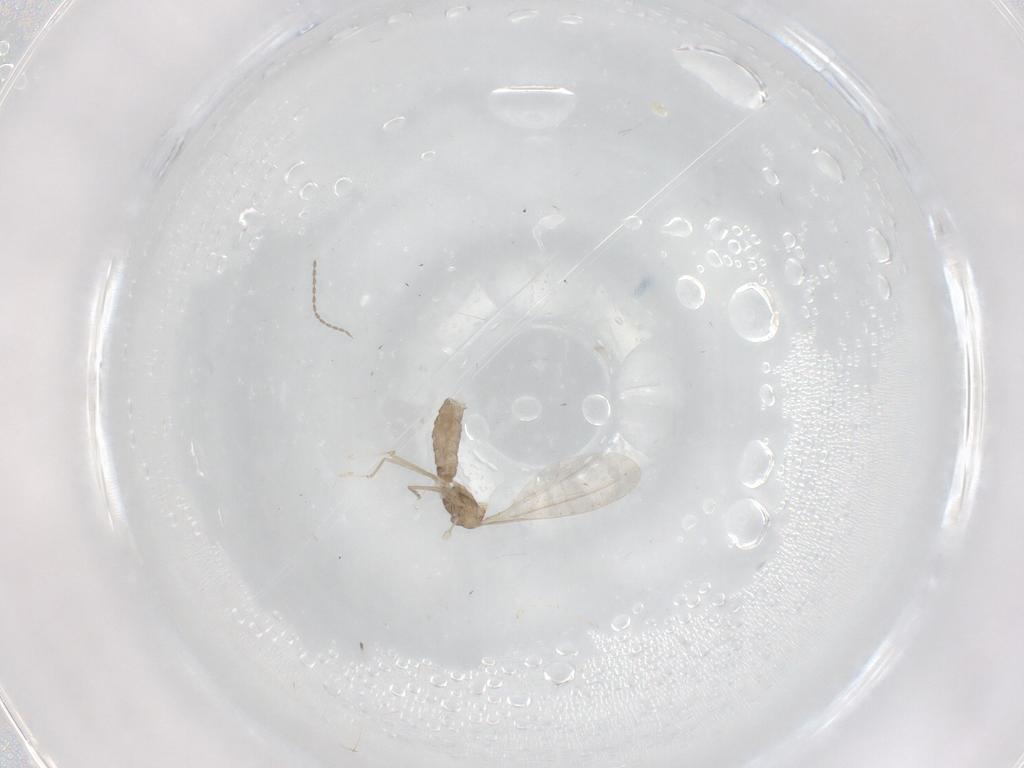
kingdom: Animalia
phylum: Arthropoda
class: Insecta
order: Diptera
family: Cecidomyiidae
